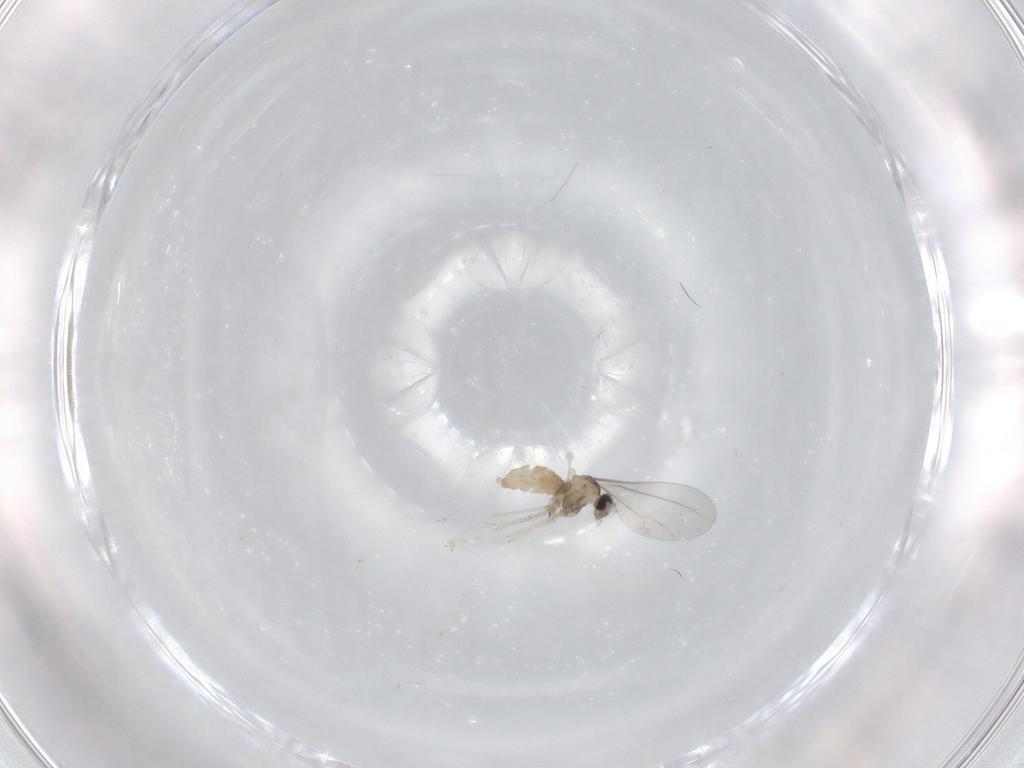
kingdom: Animalia
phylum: Arthropoda
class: Insecta
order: Diptera
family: Cecidomyiidae
